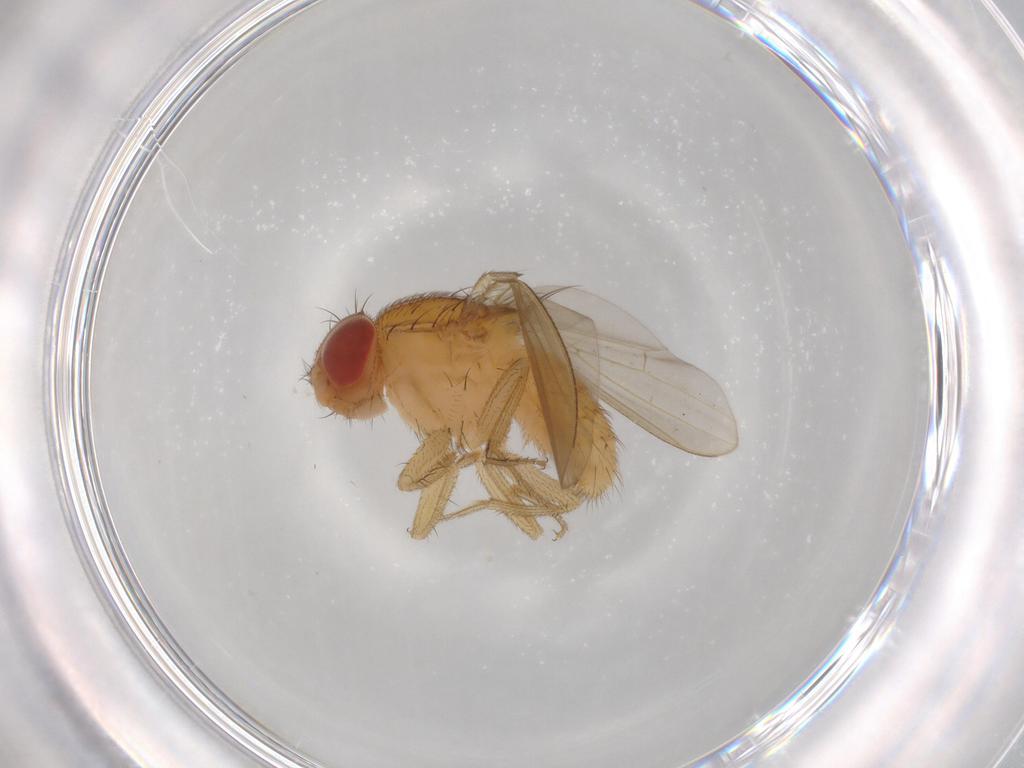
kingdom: Animalia
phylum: Arthropoda
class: Insecta
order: Diptera
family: Drosophilidae
